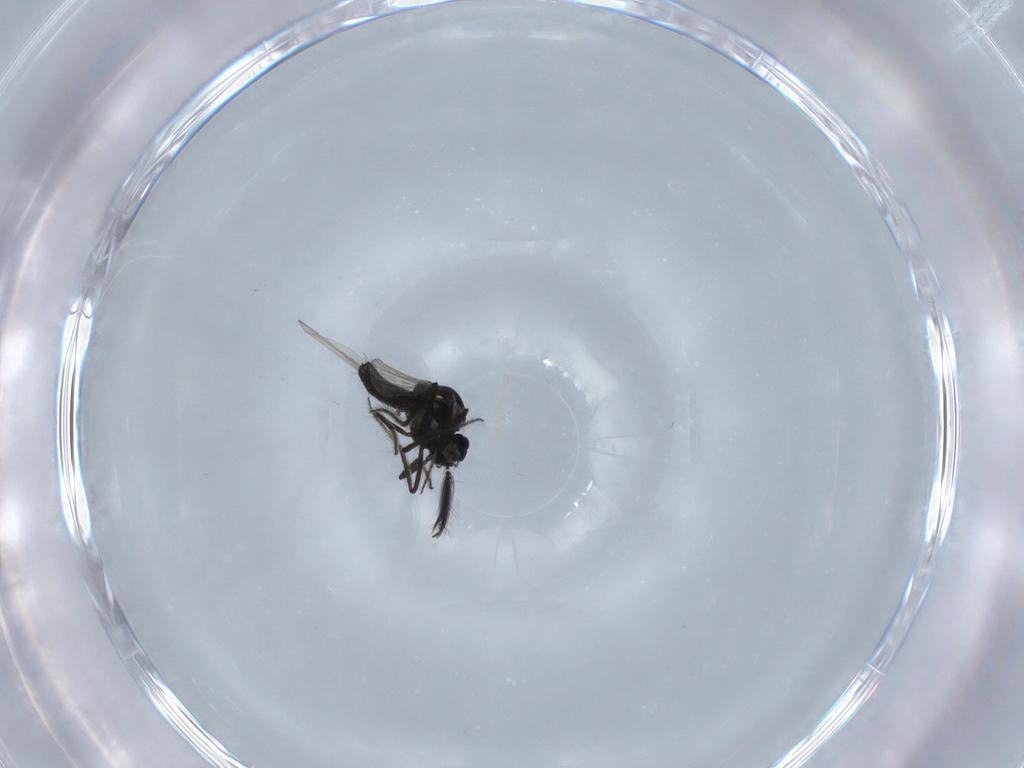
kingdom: Animalia
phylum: Arthropoda
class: Insecta
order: Diptera
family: Ceratopogonidae
